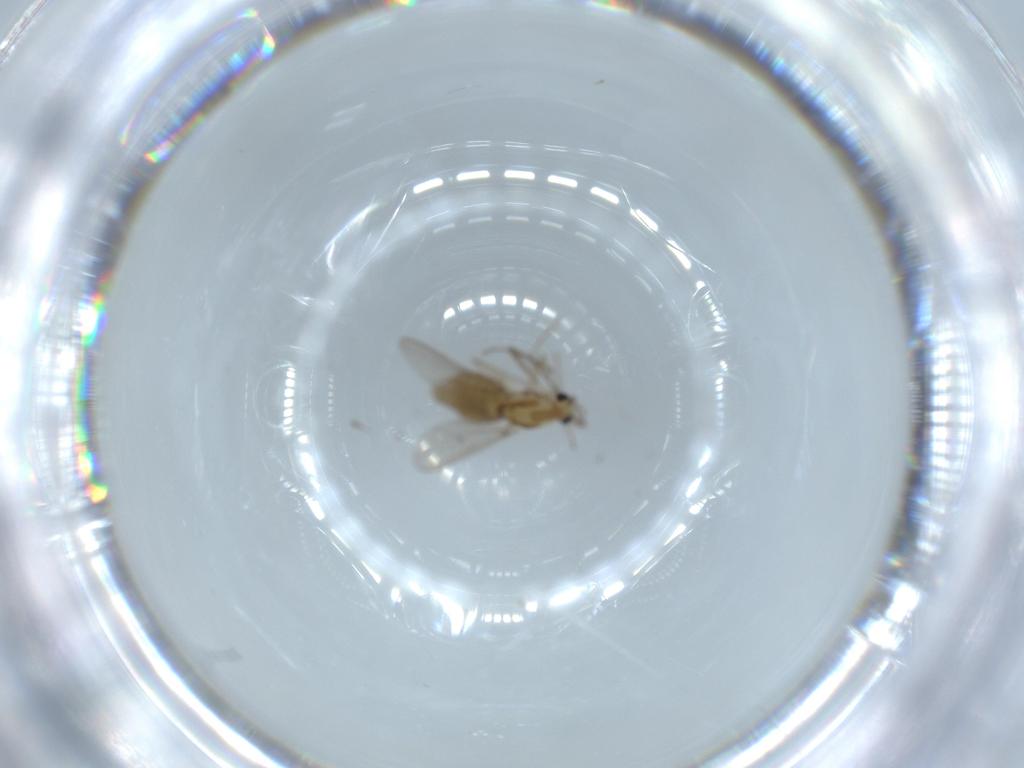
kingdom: Animalia
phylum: Arthropoda
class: Insecta
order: Diptera
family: Chironomidae
